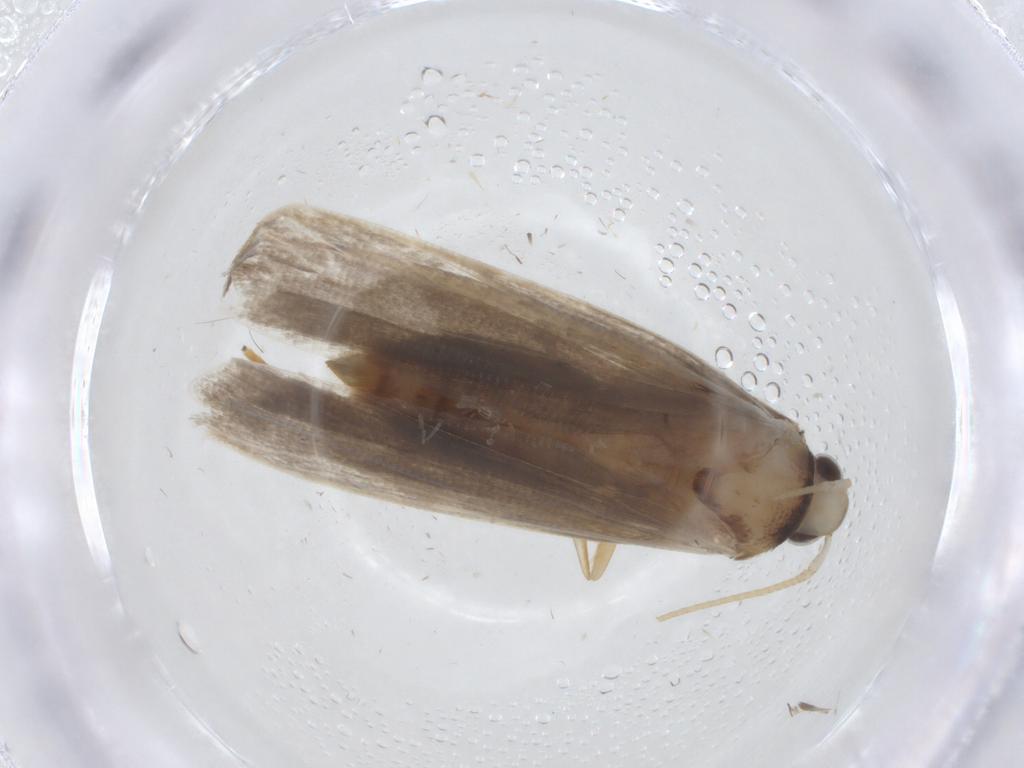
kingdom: Animalia
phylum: Arthropoda
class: Insecta
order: Lepidoptera
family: Autostichidae
